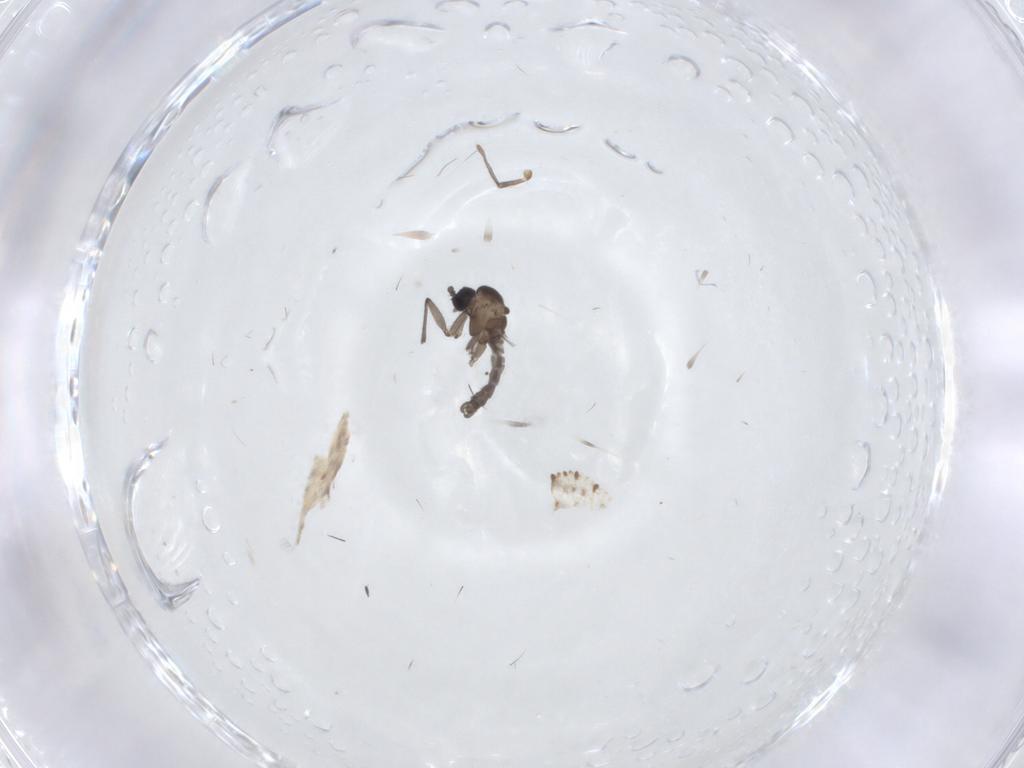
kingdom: Animalia
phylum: Arthropoda
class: Insecta
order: Diptera
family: Sciaridae
